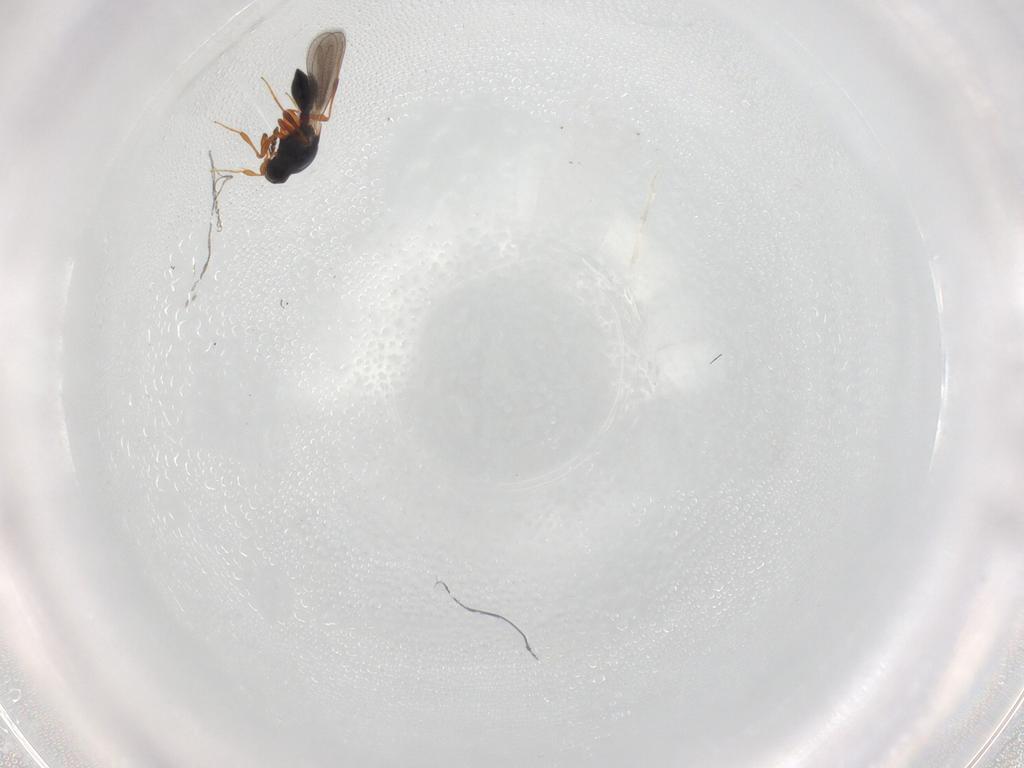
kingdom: Animalia
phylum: Arthropoda
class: Insecta
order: Hymenoptera
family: Platygastridae
